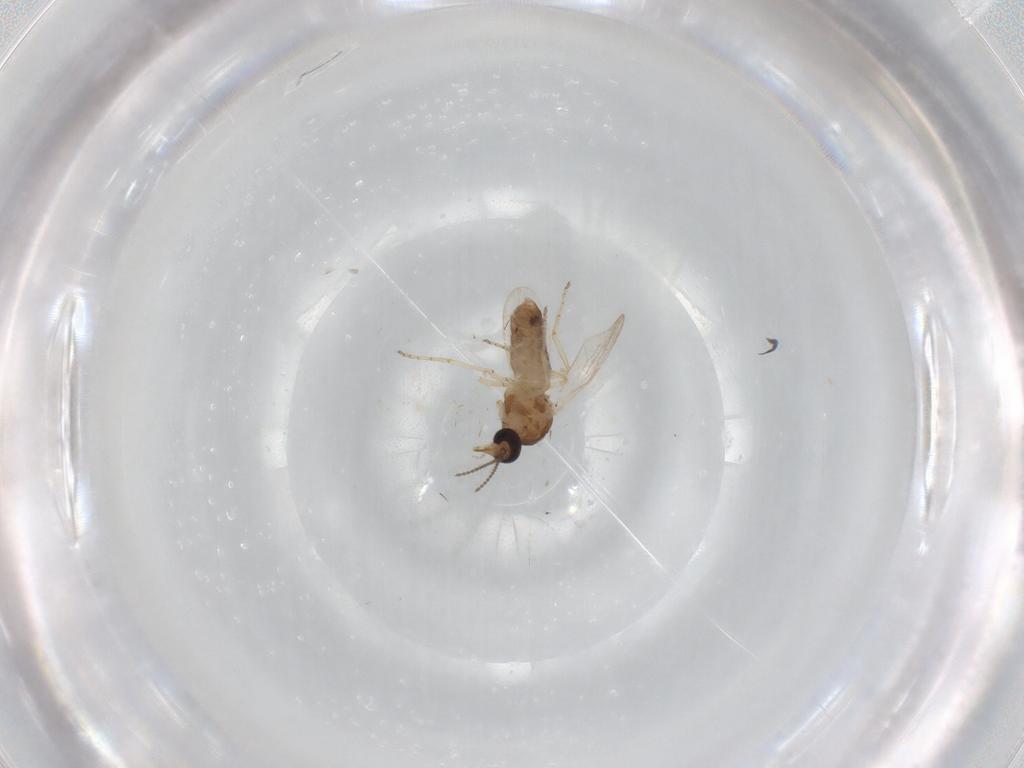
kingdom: Animalia
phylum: Arthropoda
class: Insecta
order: Diptera
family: Ceratopogonidae
